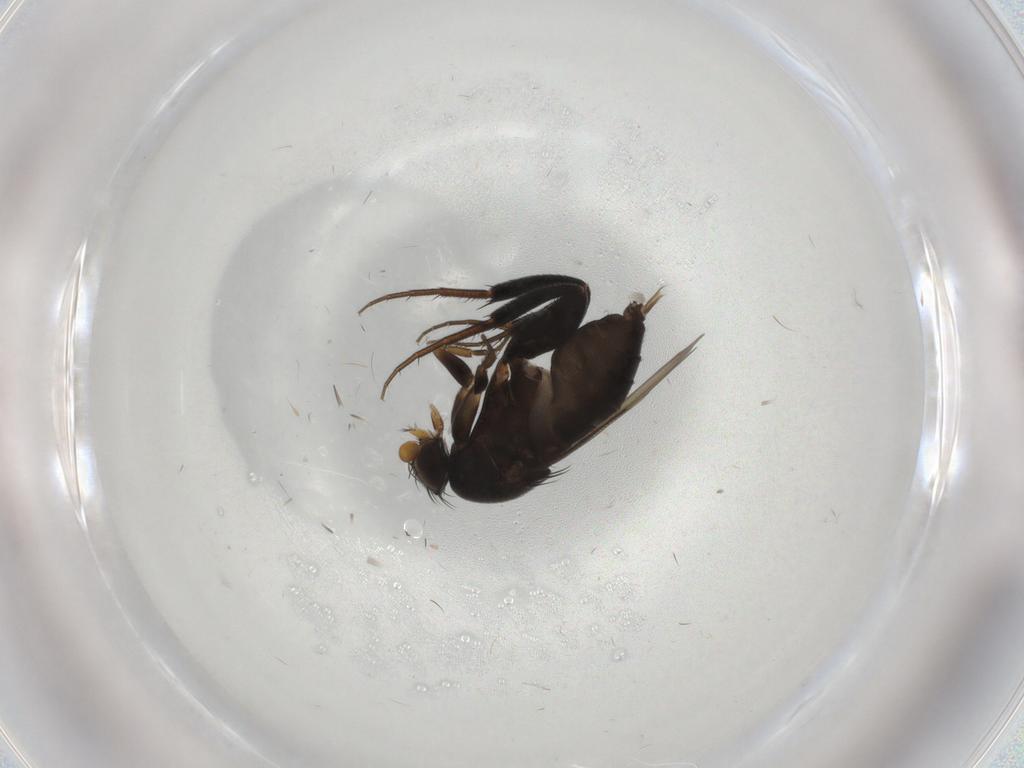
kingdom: Animalia
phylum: Arthropoda
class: Insecta
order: Diptera
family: Phoridae
